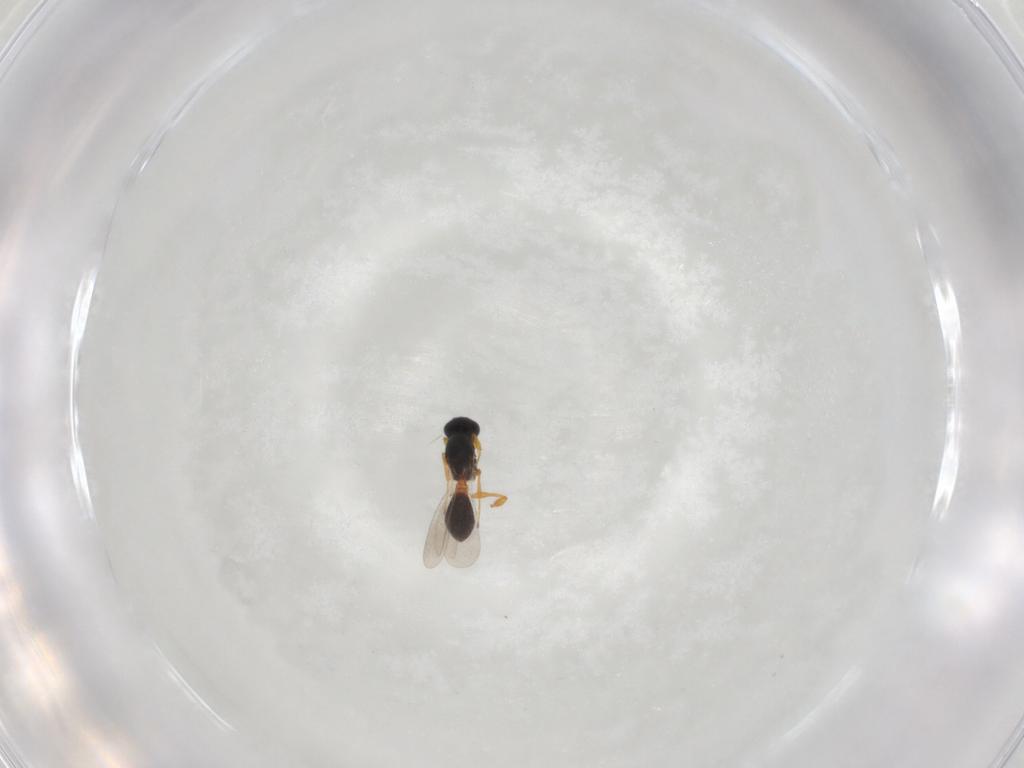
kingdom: Animalia
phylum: Arthropoda
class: Insecta
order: Hymenoptera
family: Platygastridae
